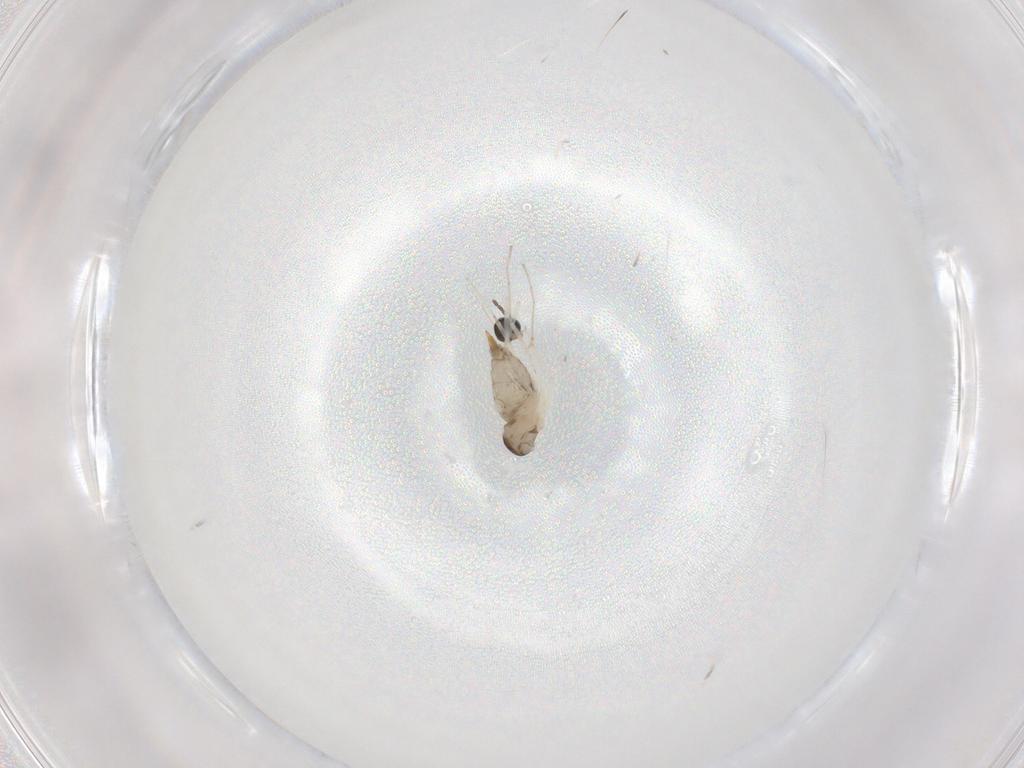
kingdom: Animalia
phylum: Arthropoda
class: Insecta
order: Diptera
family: Cecidomyiidae
